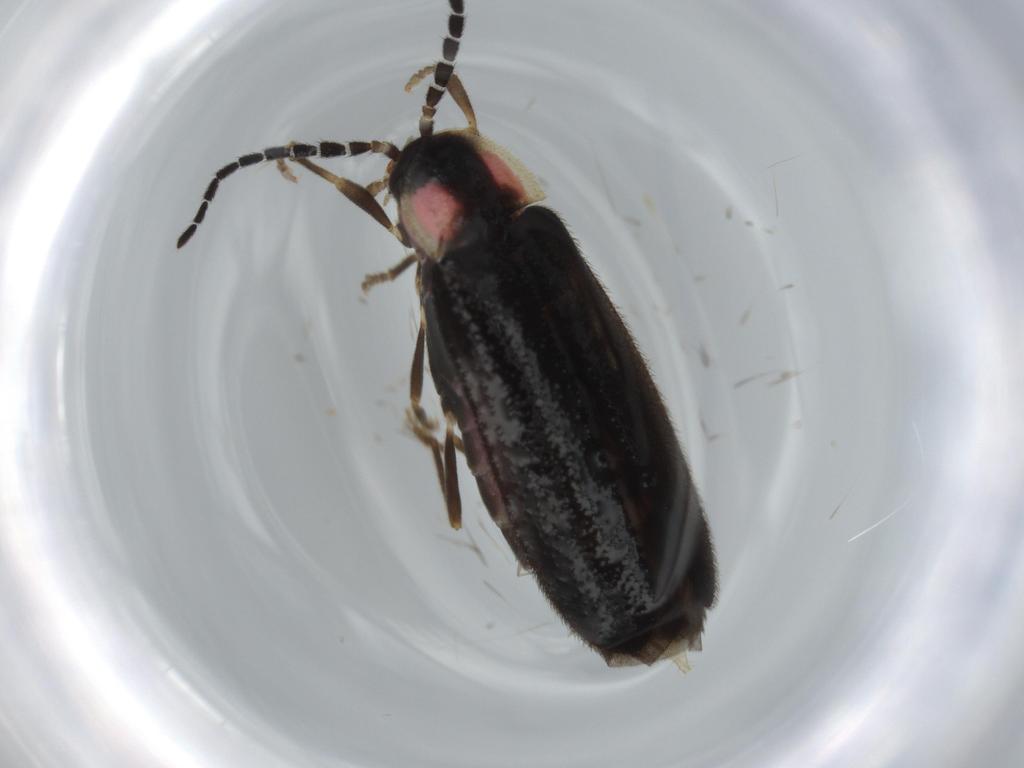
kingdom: Animalia
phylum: Arthropoda
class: Insecta
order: Coleoptera
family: Lampyridae
